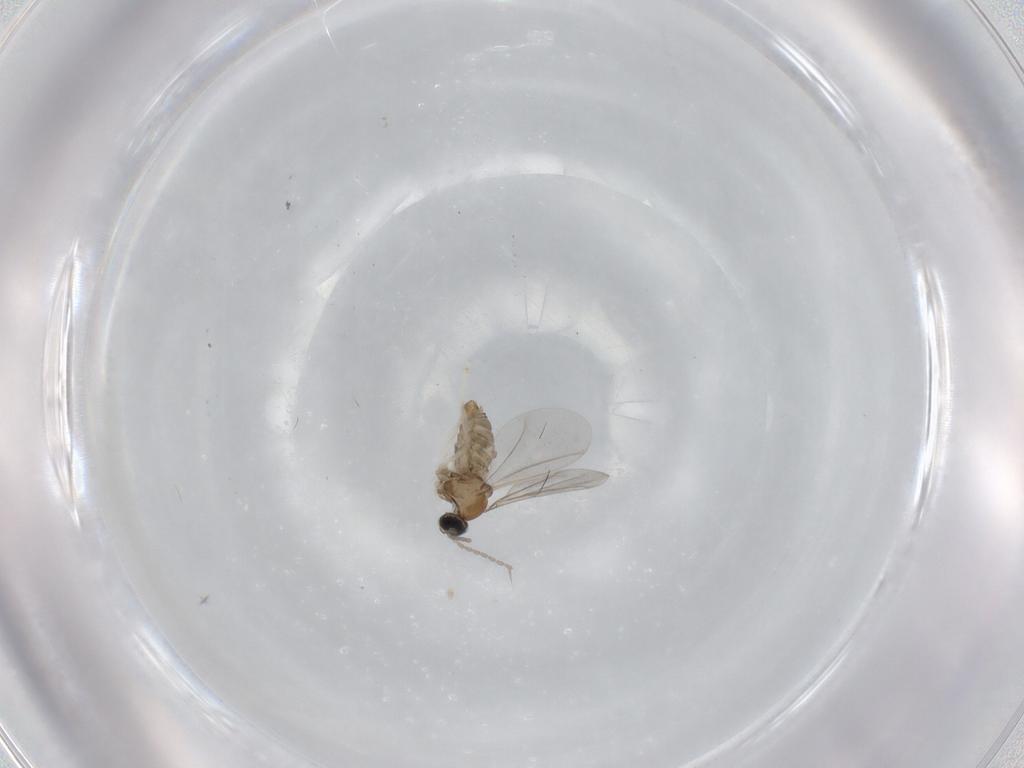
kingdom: Animalia
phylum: Arthropoda
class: Insecta
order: Diptera
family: Cecidomyiidae
